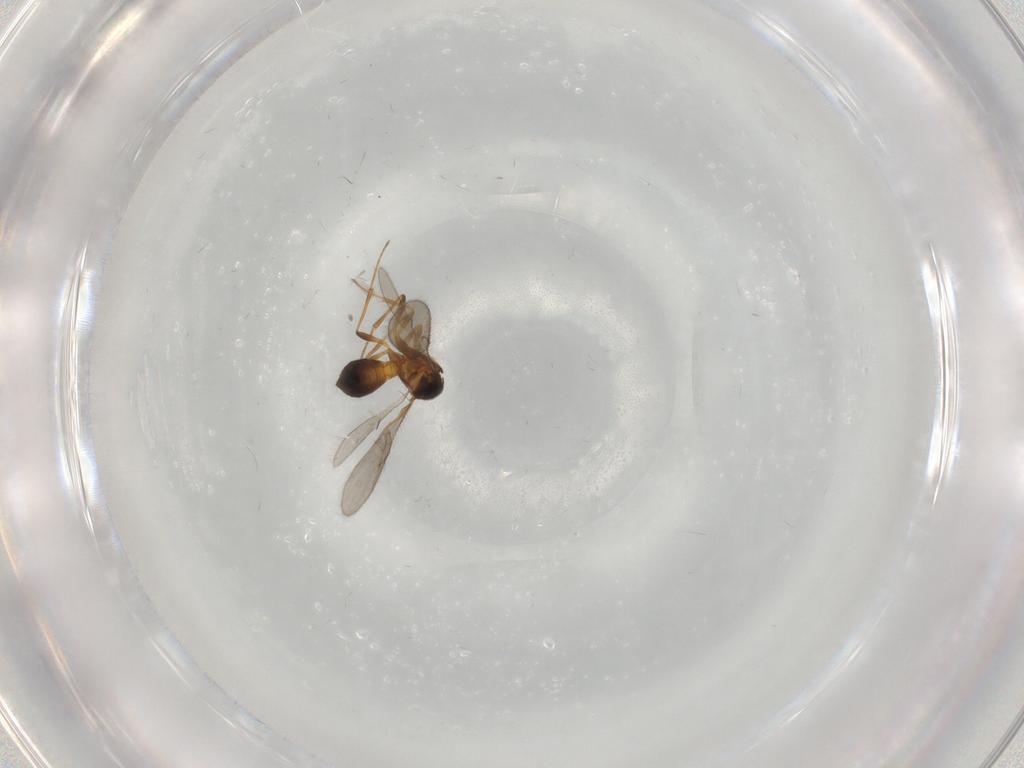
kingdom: Animalia
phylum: Arthropoda
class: Insecta
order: Hymenoptera
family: Scelionidae
